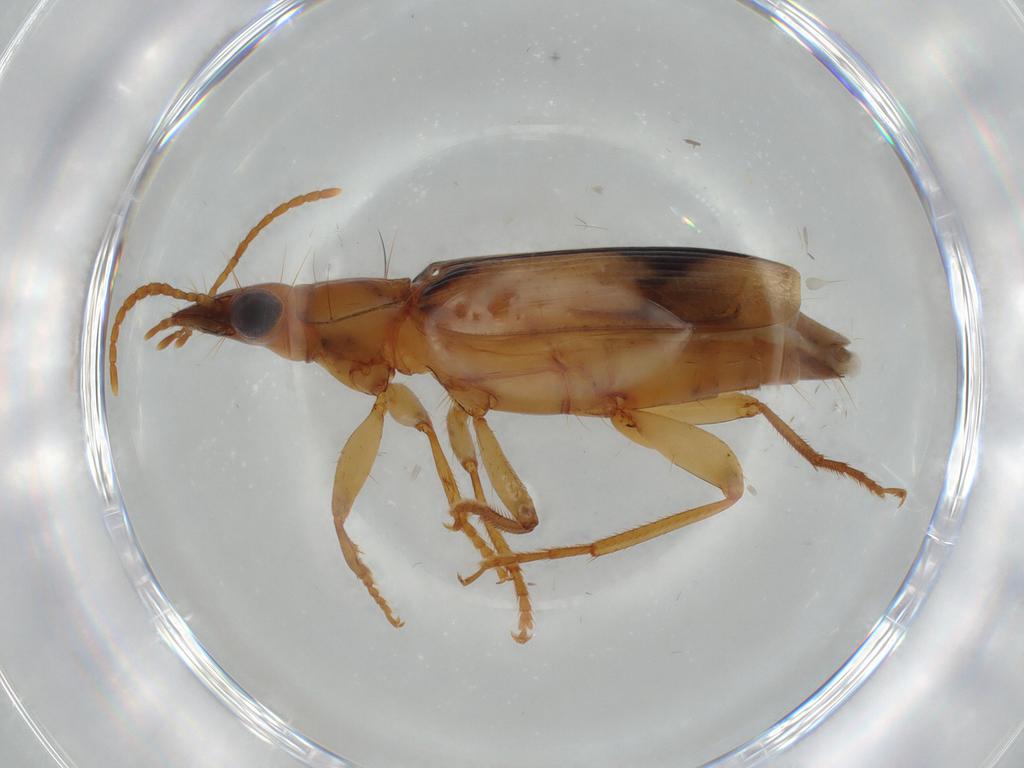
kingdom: Animalia
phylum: Arthropoda
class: Insecta
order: Coleoptera
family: Carabidae
